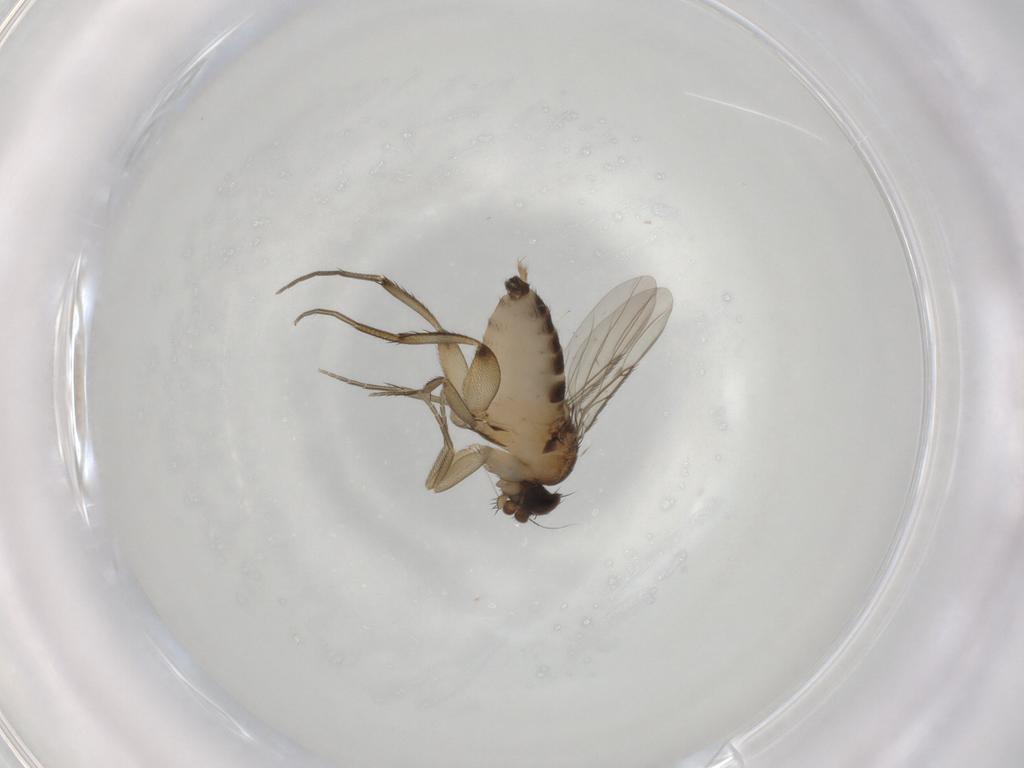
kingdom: Animalia
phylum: Arthropoda
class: Insecta
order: Diptera
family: Phoridae
